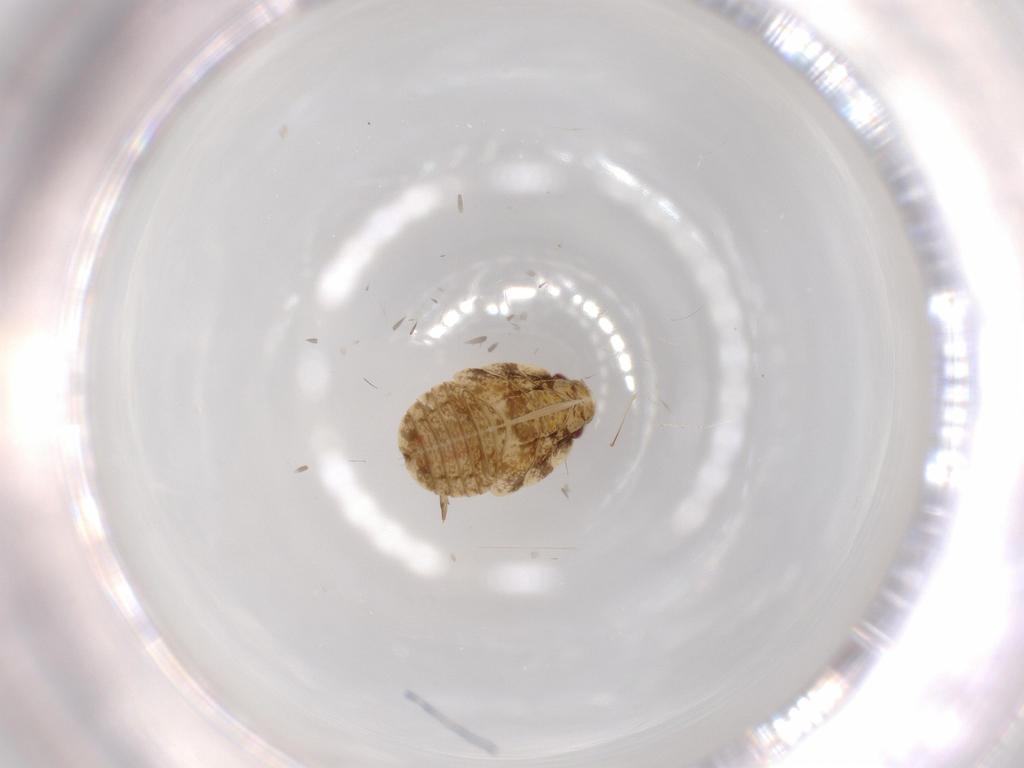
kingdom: Animalia
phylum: Arthropoda
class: Insecta
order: Hemiptera
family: Flatidae
